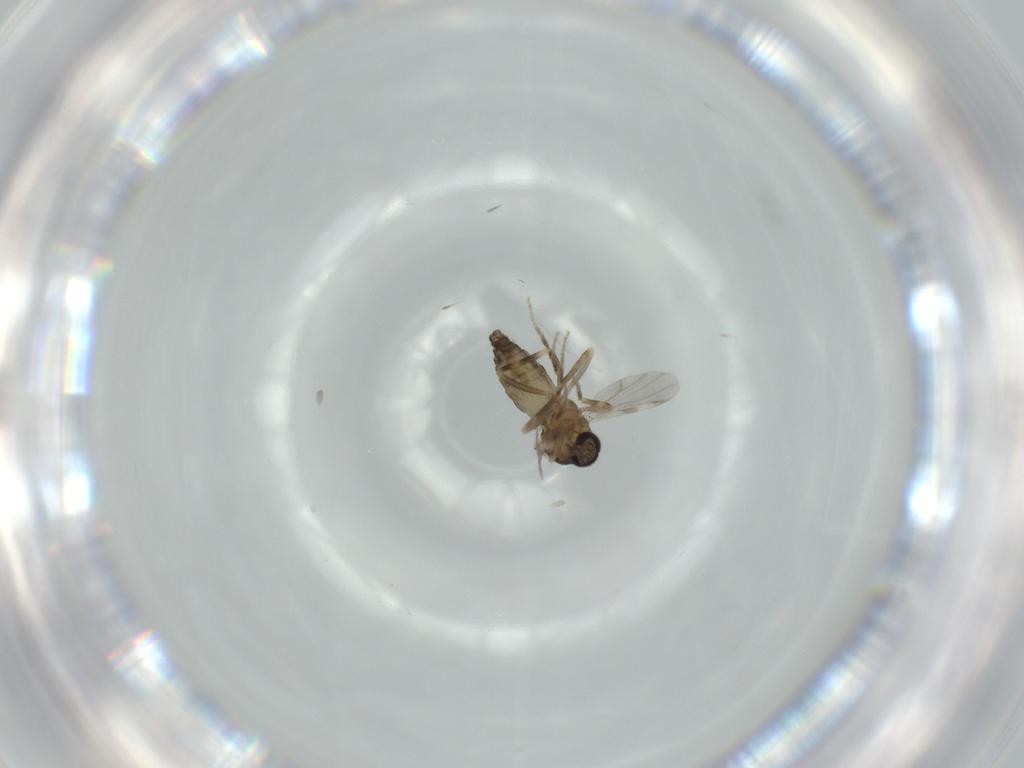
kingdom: Animalia
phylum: Arthropoda
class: Insecta
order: Diptera
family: Ceratopogonidae
